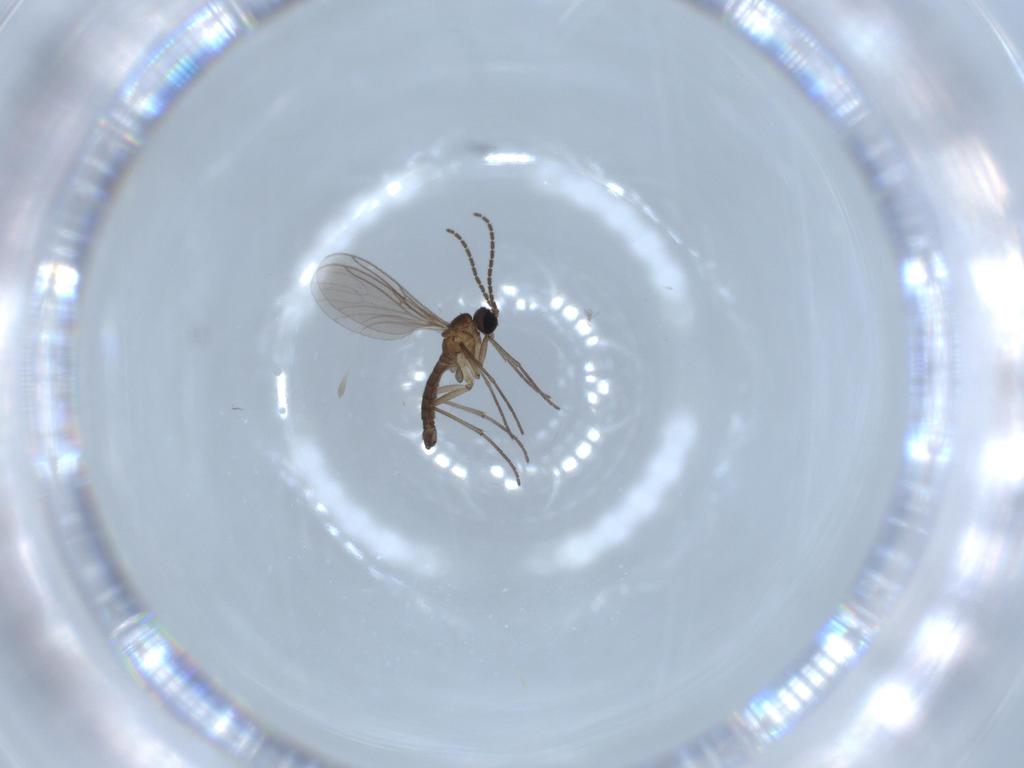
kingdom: Animalia
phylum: Arthropoda
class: Insecta
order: Diptera
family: Sciaridae
